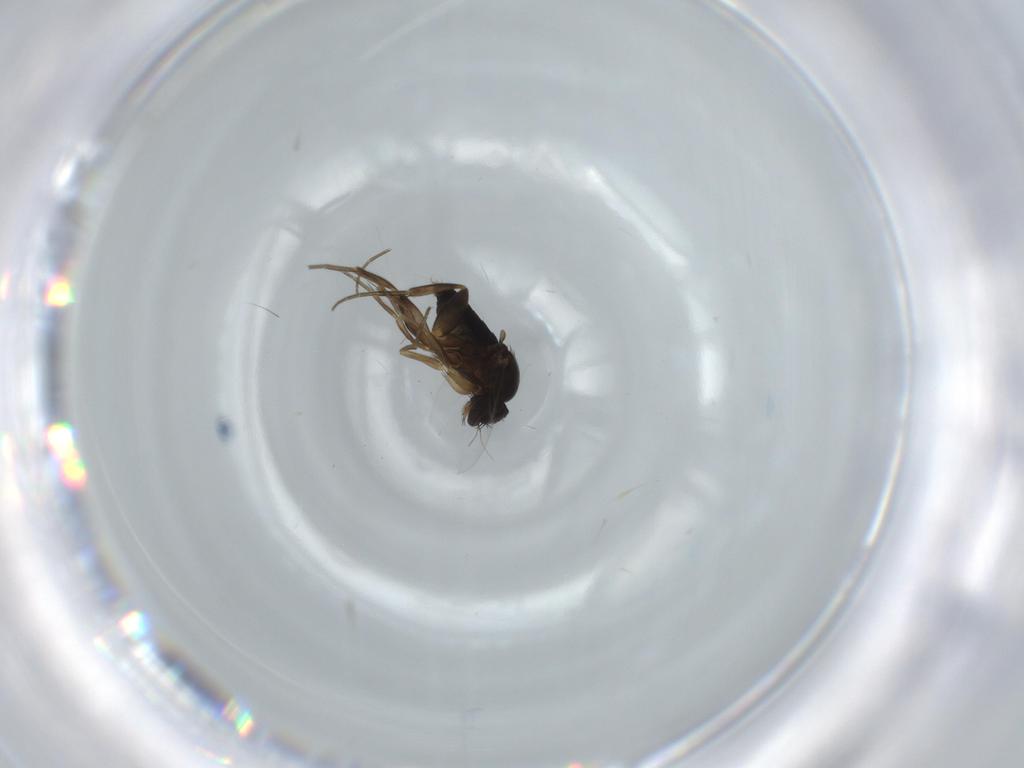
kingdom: Animalia
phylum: Arthropoda
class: Insecta
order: Diptera
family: Phoridae
